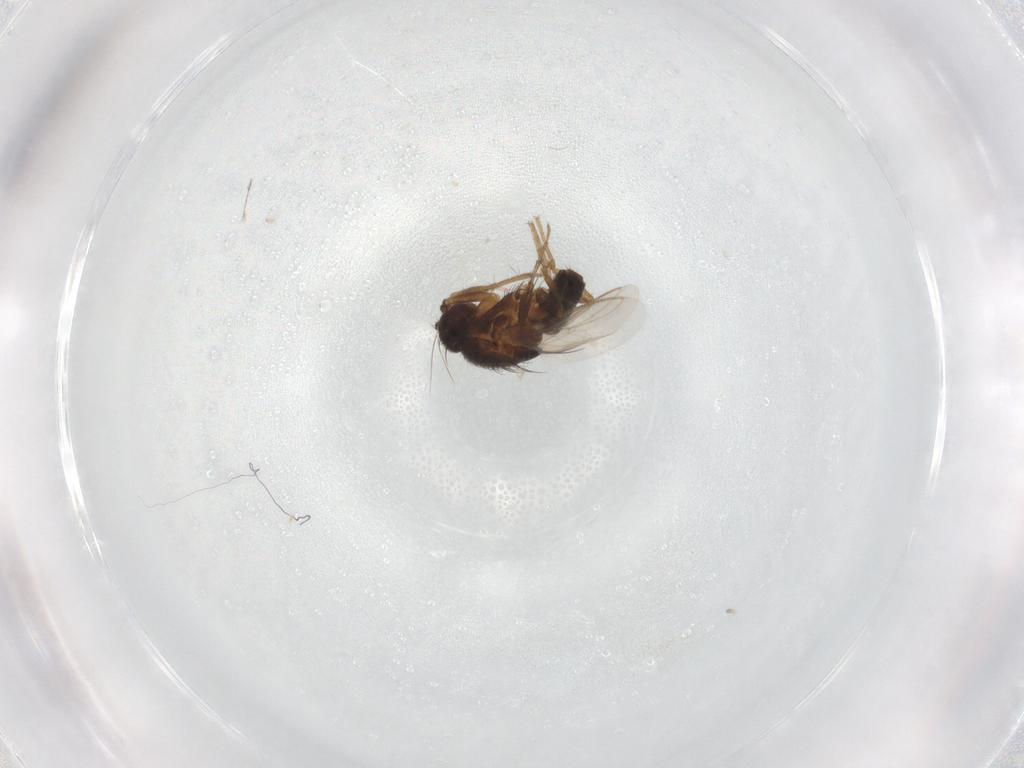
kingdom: Animalia
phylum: Arthropoda
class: Insecta
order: Diptera
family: Sphaeroceridae
